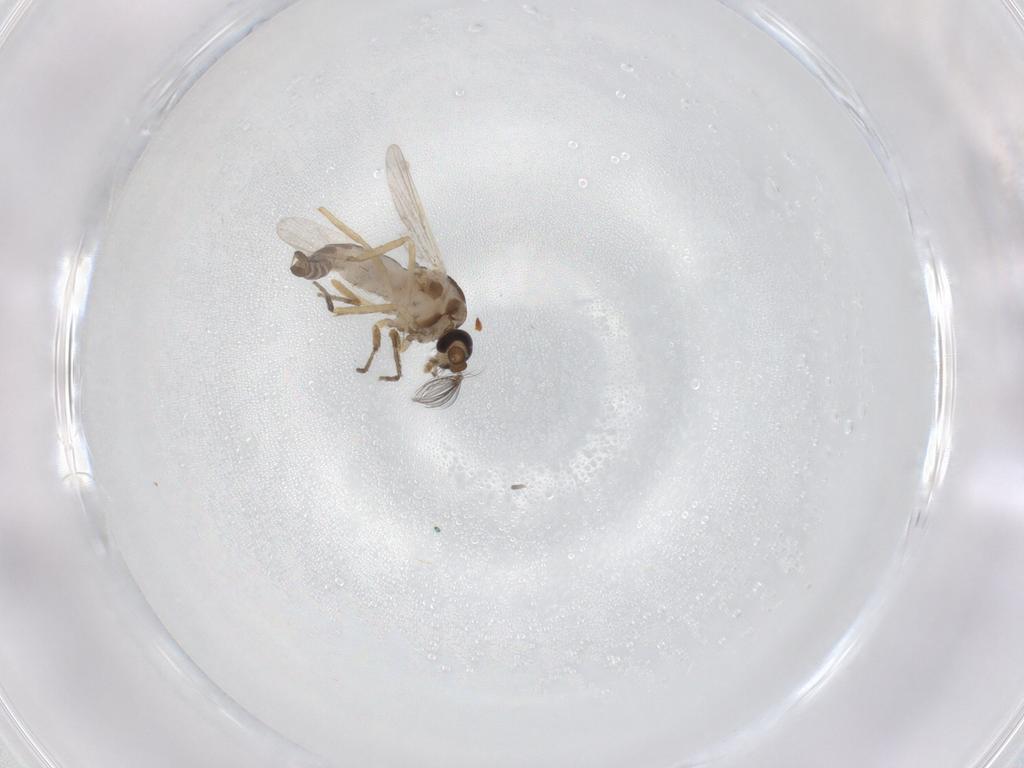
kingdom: Animalia
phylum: Arthropoda
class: Insecta
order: Diptera
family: Ceratopogonidae
